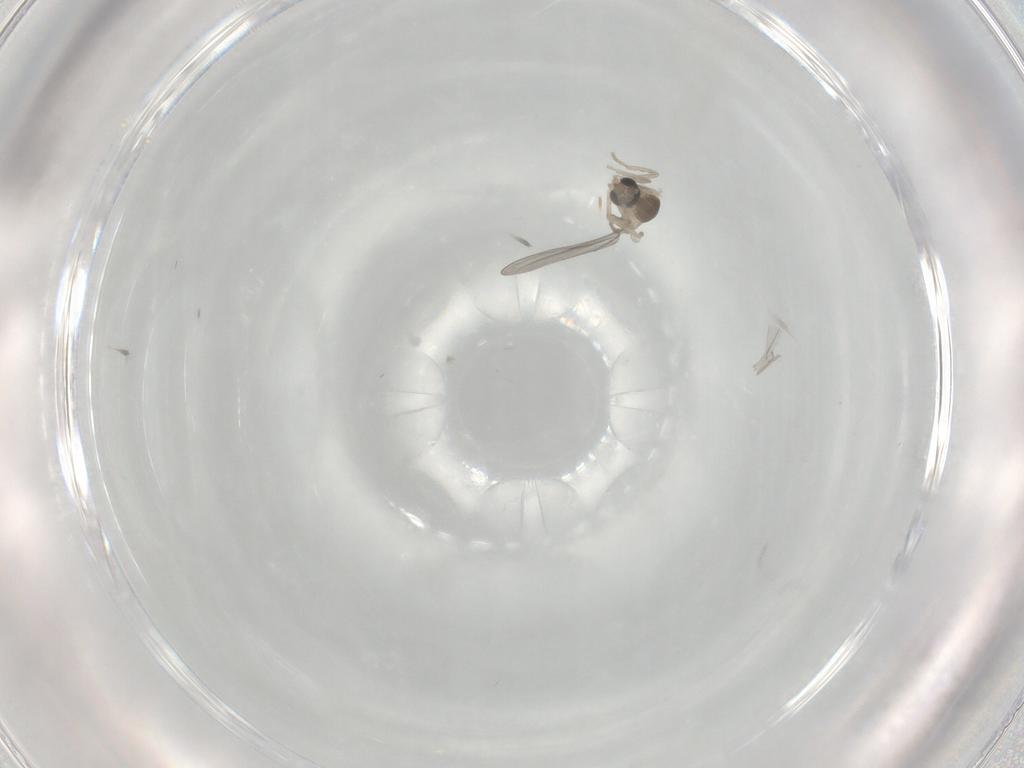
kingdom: Animalia
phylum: Arthropoda
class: Insecta
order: Diptera
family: Cecidomyiidae
